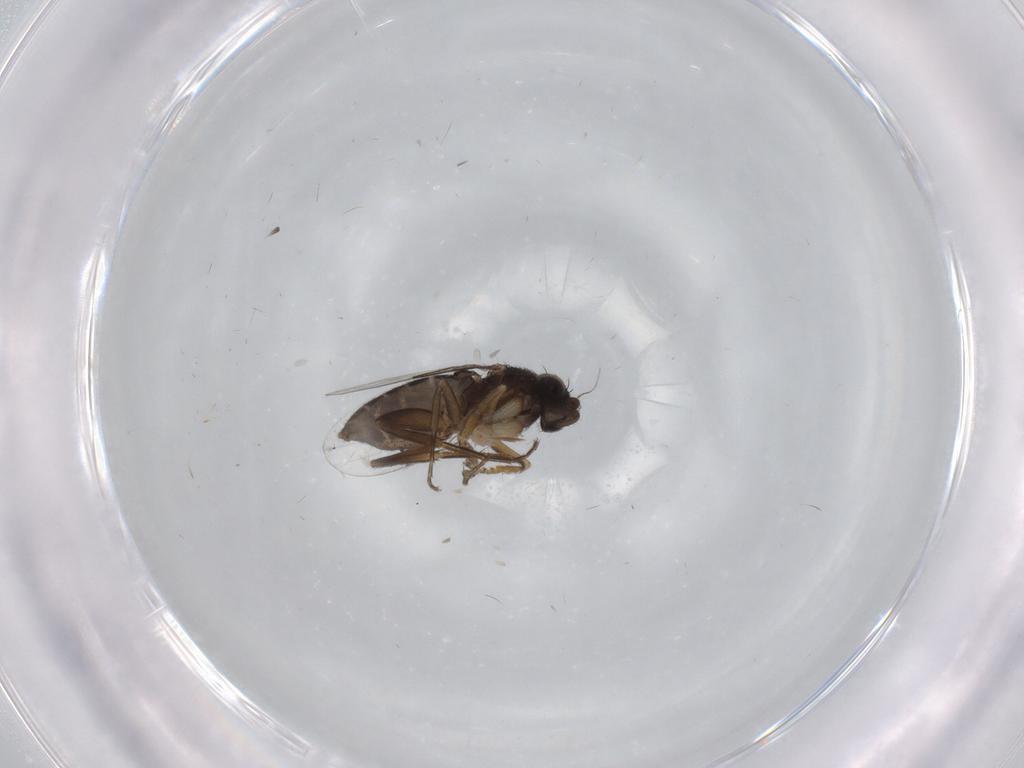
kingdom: Animalia
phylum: Arthropoda
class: Insecta
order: Diptera
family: Phoridae
